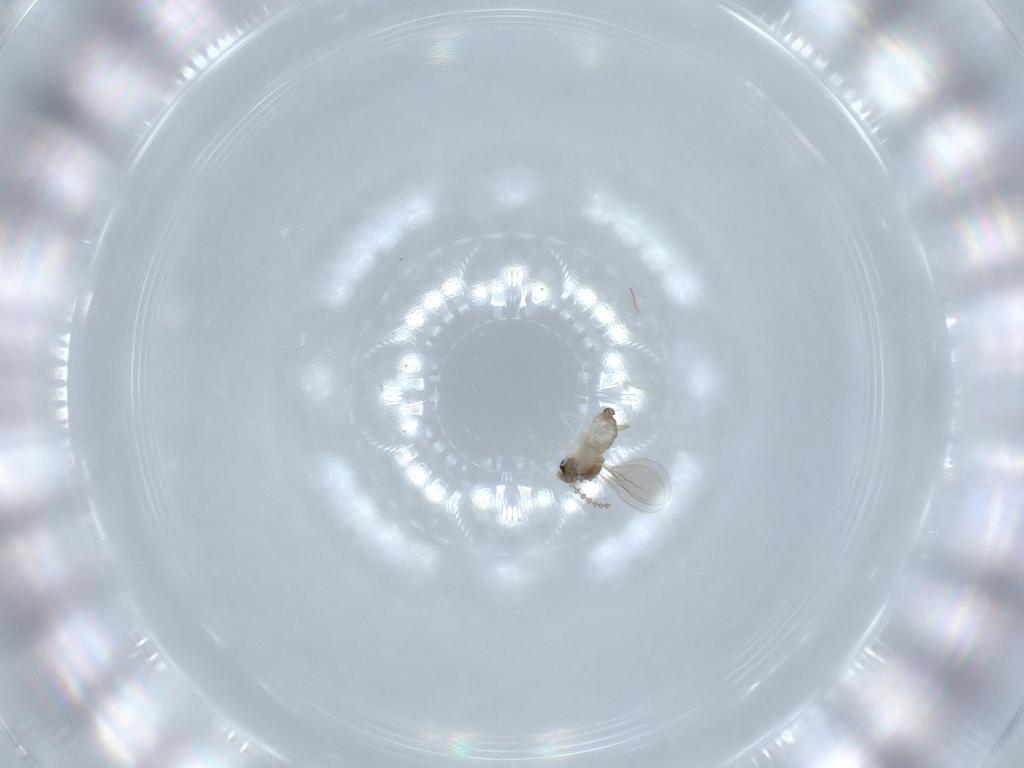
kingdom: Animalia
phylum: Arthropoda
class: Insecta
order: Diptera
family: Cecidomyiidae
